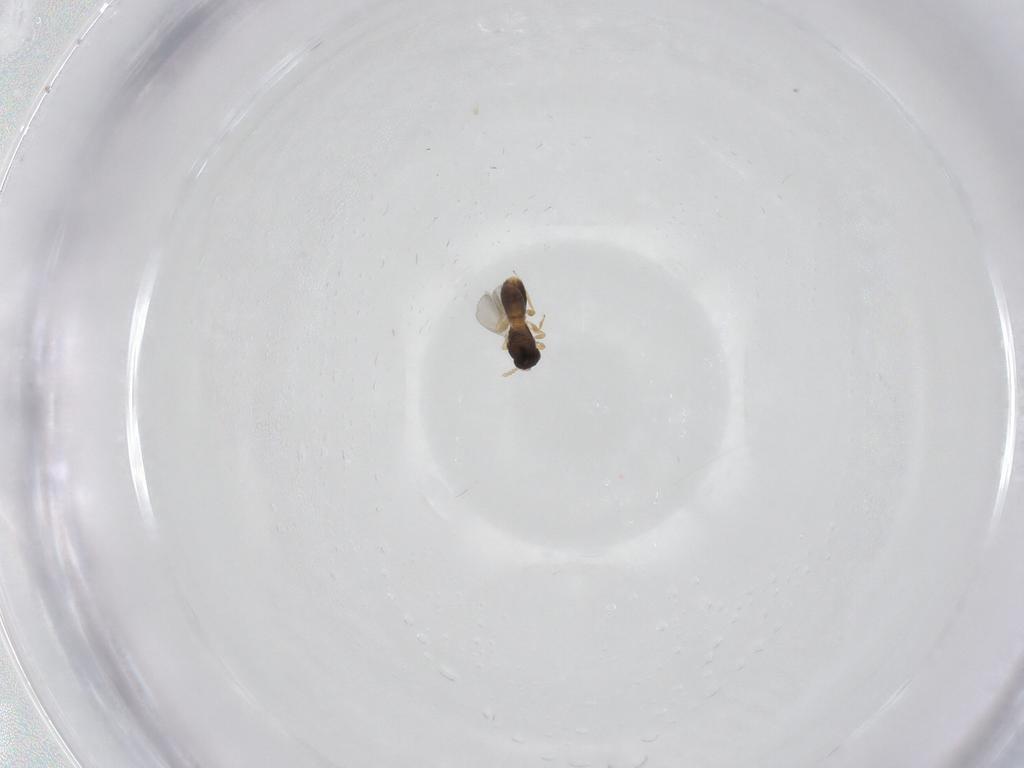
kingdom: Animalia
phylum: Arthropoda
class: Insecta
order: Hymenoptera
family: Platygastridae
